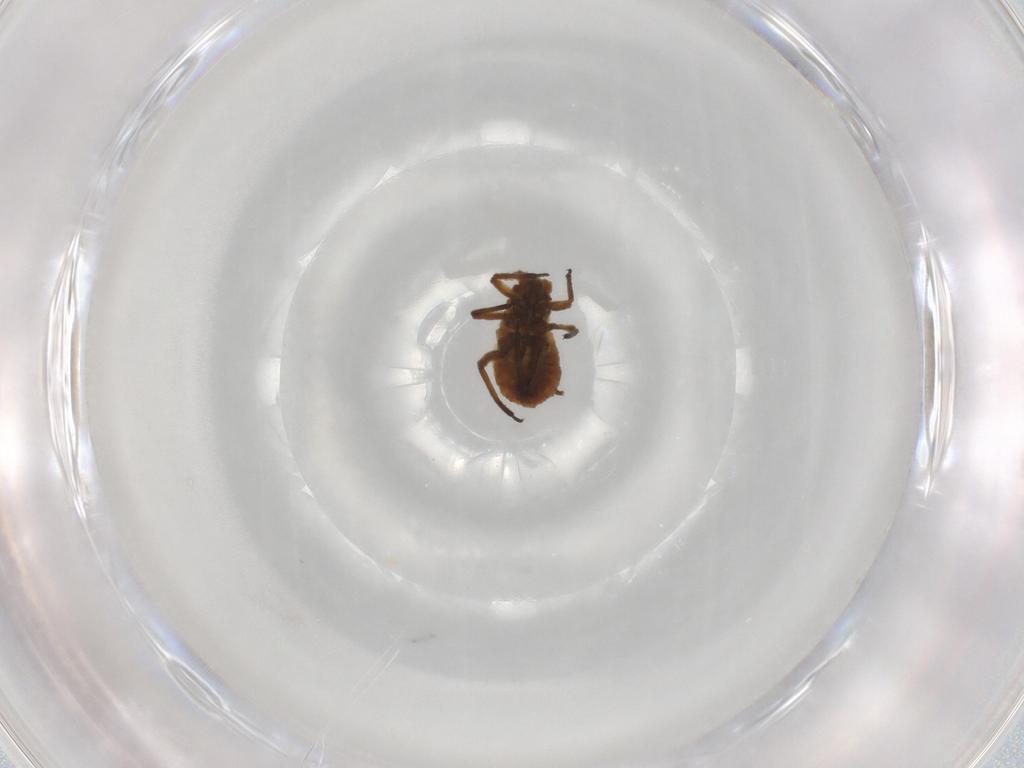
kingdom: Animalia
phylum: Arthropoda
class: Insecta
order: Hemiptera
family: Aphididae
